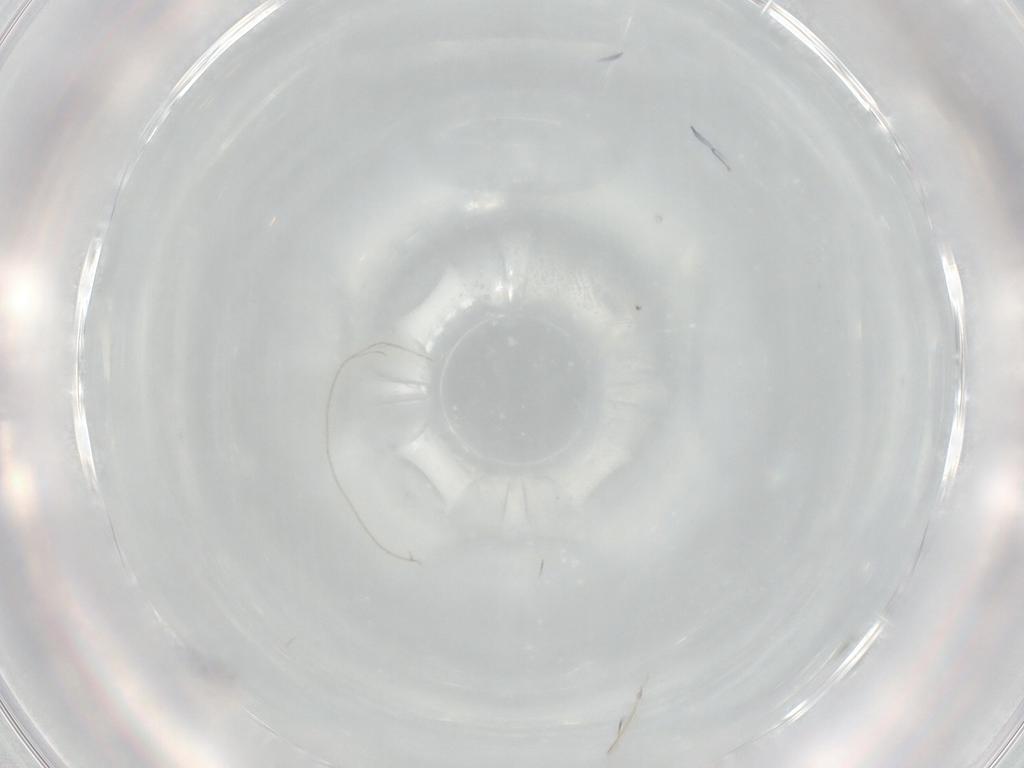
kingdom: Animalia
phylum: Arthropoda
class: Collembola
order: Entomobryomorpha
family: Entomobryidae
